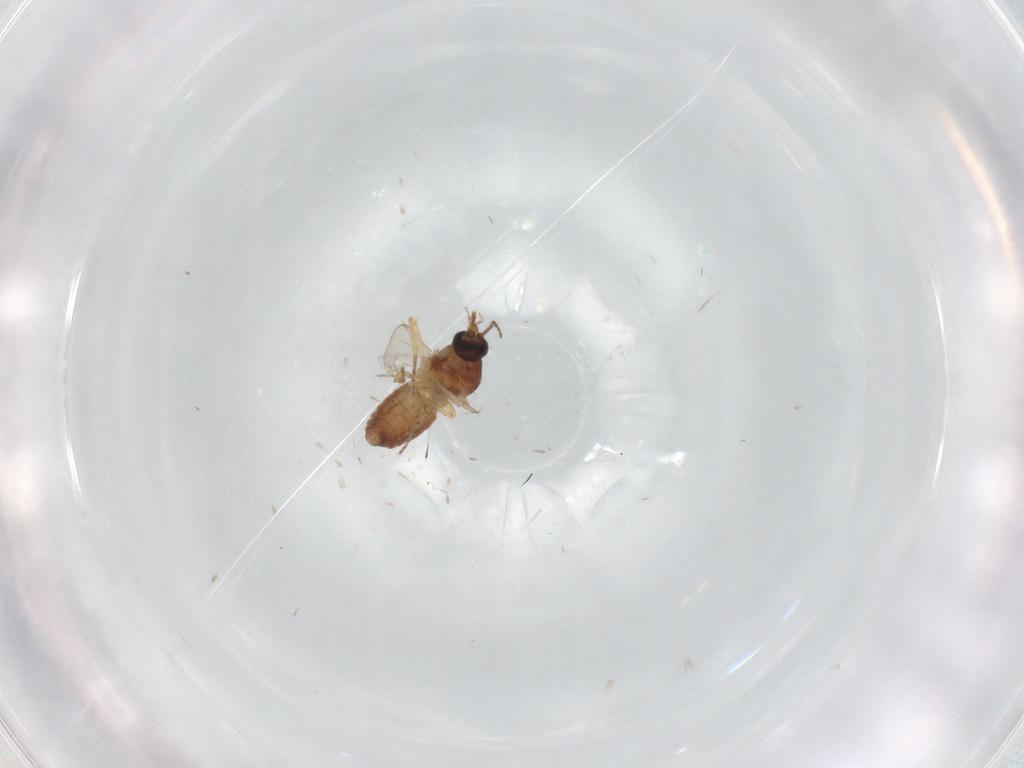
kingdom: Animalia
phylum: Arthropoda
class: Insecta
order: Diptera
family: Ceratopogonidae
